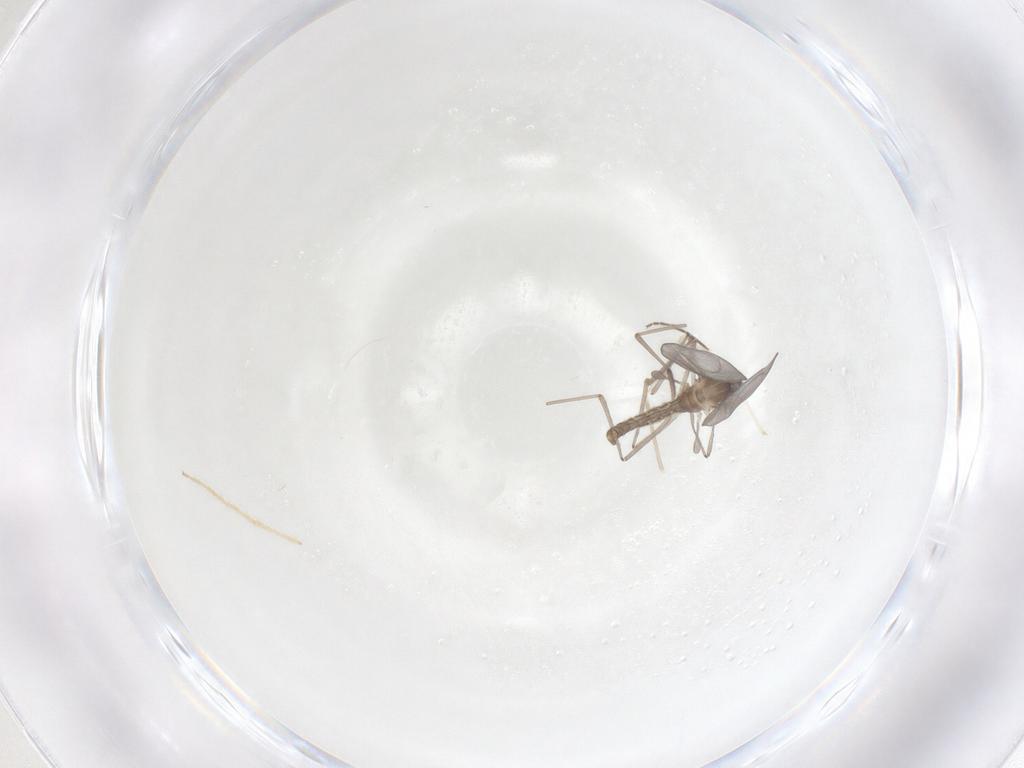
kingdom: Animalia
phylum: Arthropoda
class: Insecta
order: Diptera
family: Cecidomyiidae
